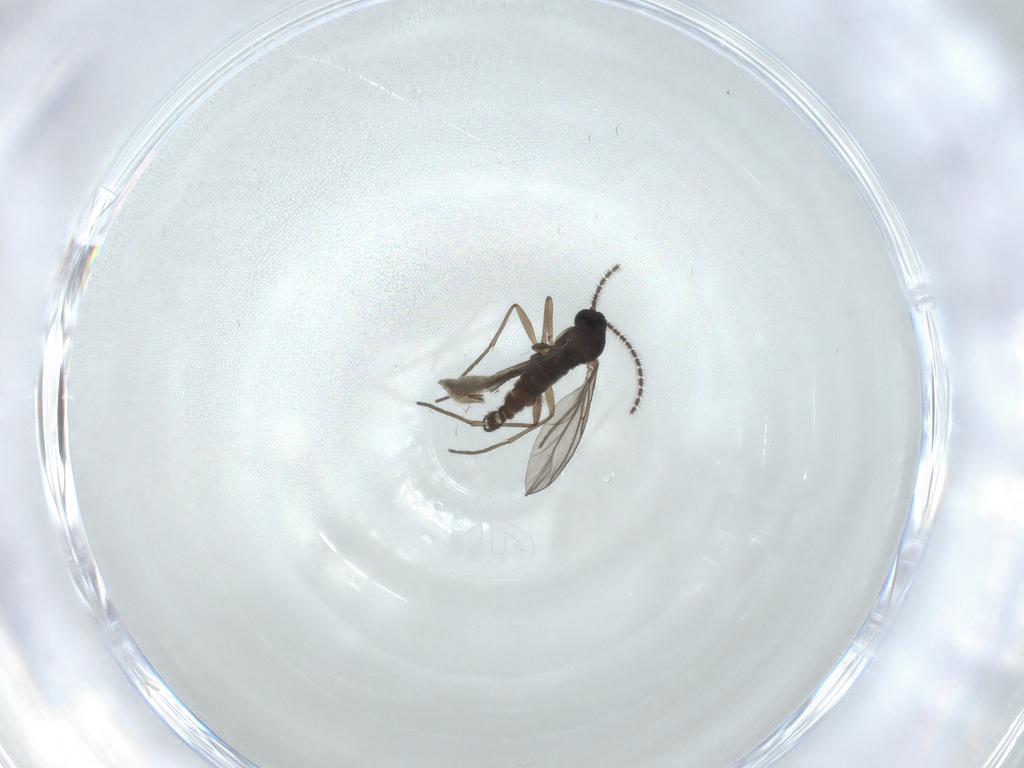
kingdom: Animalia
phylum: Arthropoda
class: Insecta
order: Diptera
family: Sciaridae
